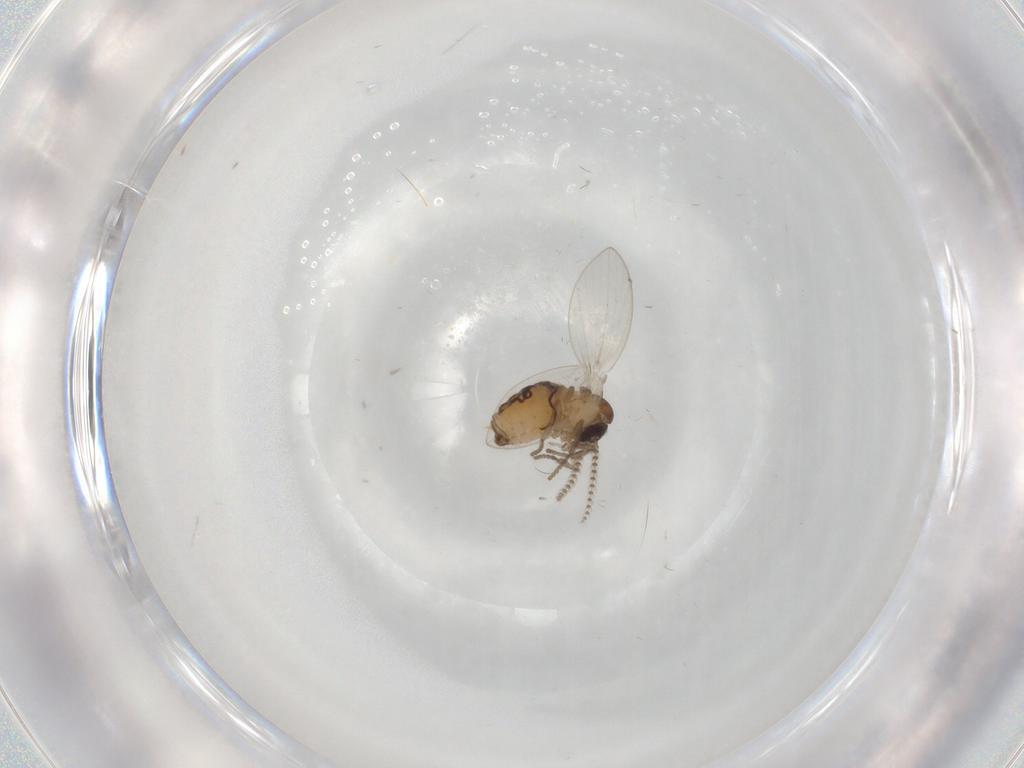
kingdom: Animalia
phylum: Arthropoda
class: Insecta
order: Diptera
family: Psychodidae
